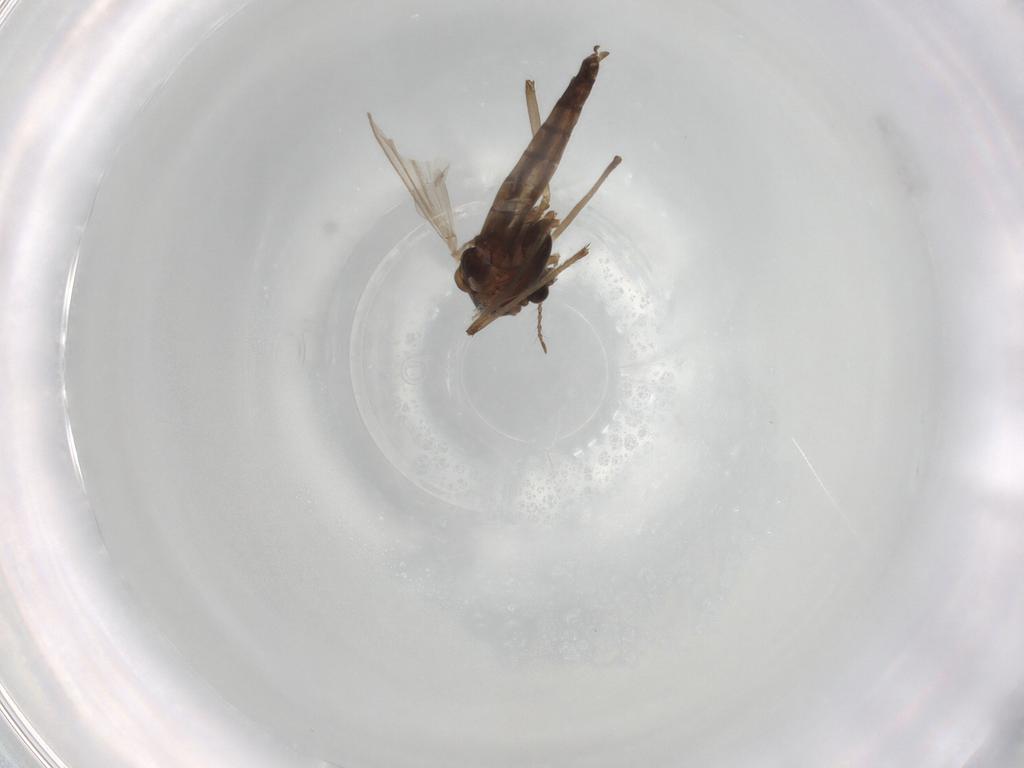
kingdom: Animalia
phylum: Arthropoda
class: Insecta
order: Diptera
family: Chironomidae
